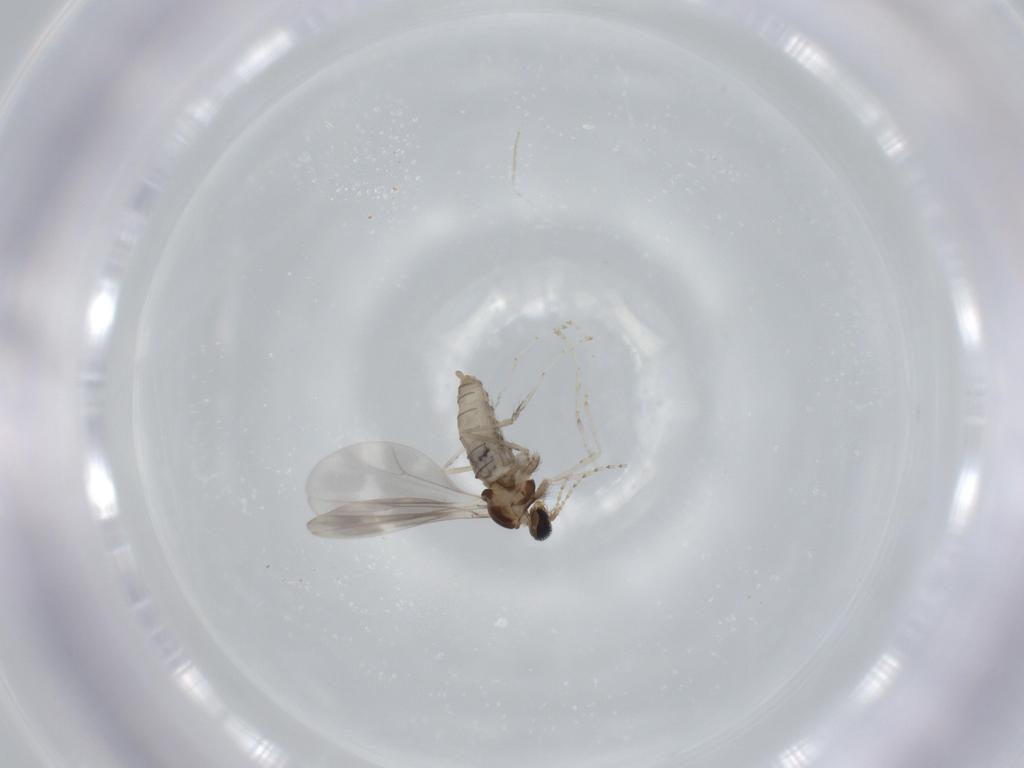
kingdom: Animalia
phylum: Arthropoda
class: Insecta
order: Diptera
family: Cecidomyiidae
